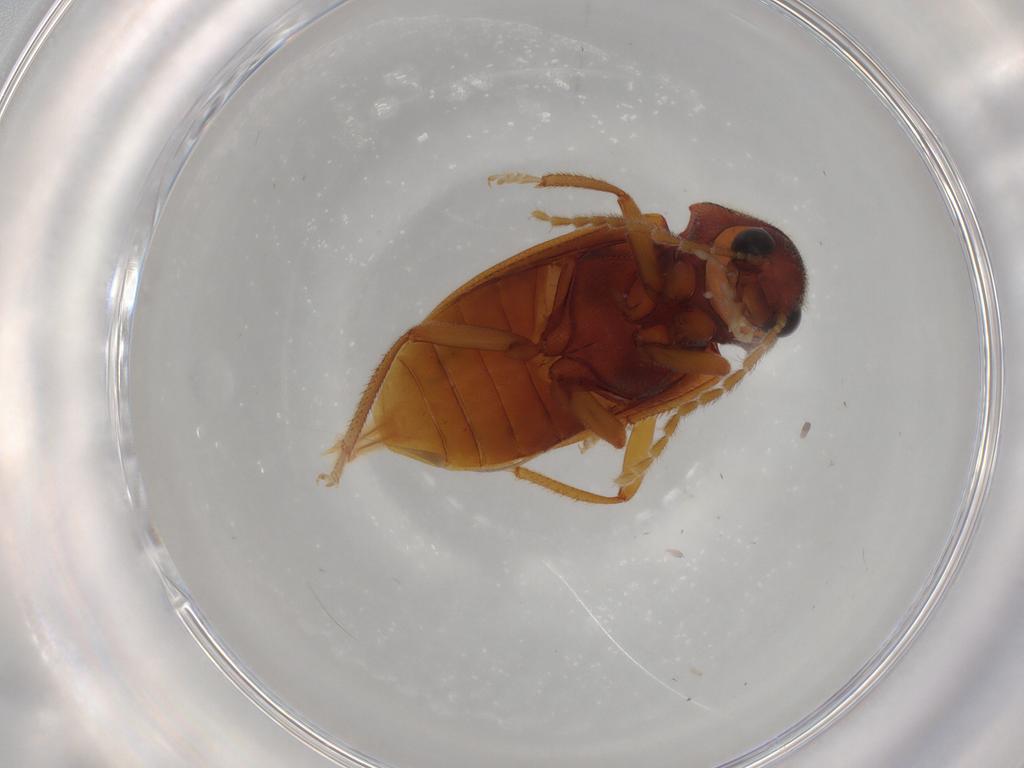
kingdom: Animalia
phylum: Arthropoda
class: Insecta
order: Coleoptera
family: Ptilodactylidae
